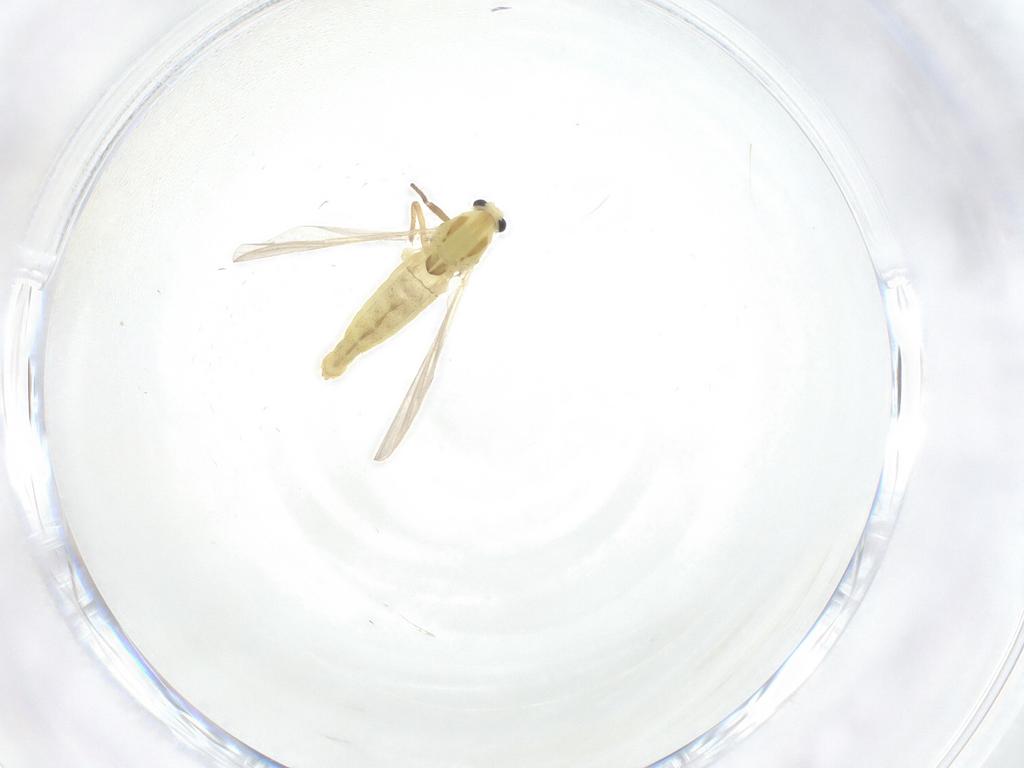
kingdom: Animalia
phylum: Arthropoda
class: Insecta
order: Diptera
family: Chironomidae
